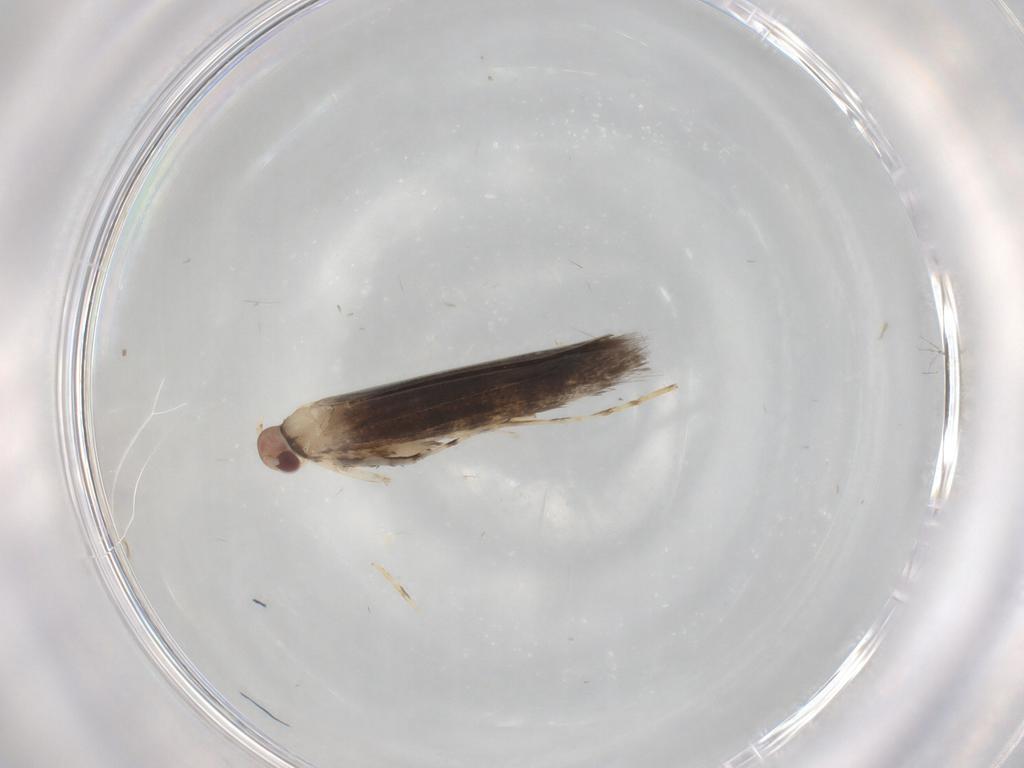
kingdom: Animalia
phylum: Arthropoda
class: Insecta
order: Lepidoptera
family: Gracillariidae
